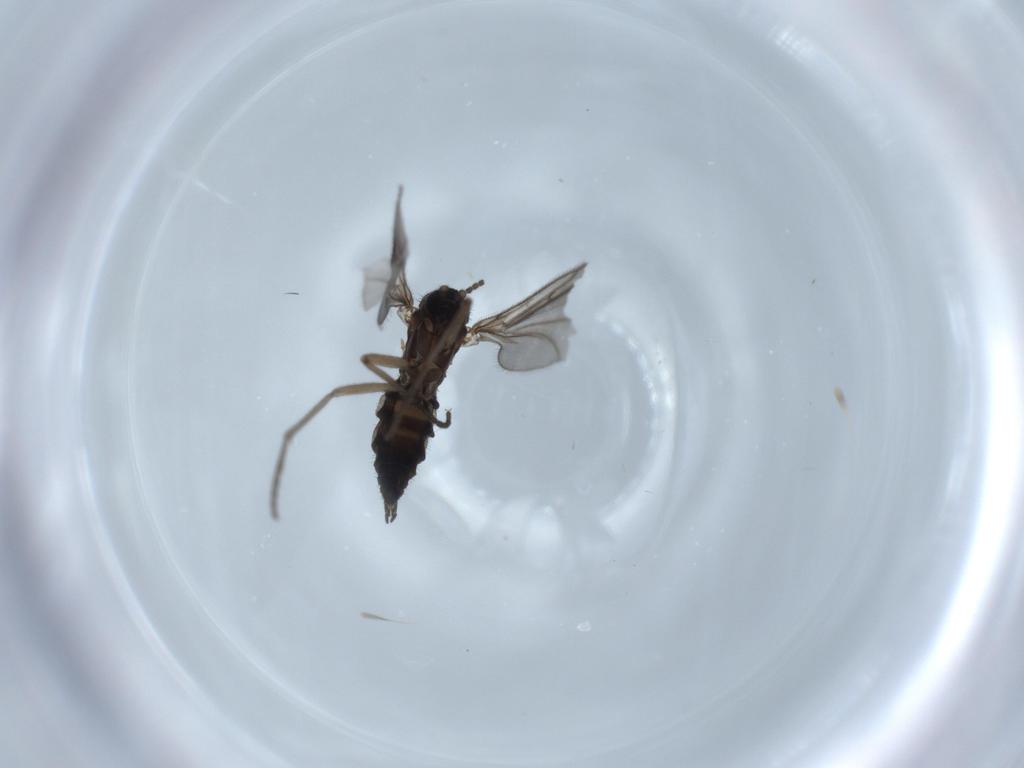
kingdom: Animalia
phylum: Arthropoda
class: Insecta
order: Diptera
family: Sciaridae
